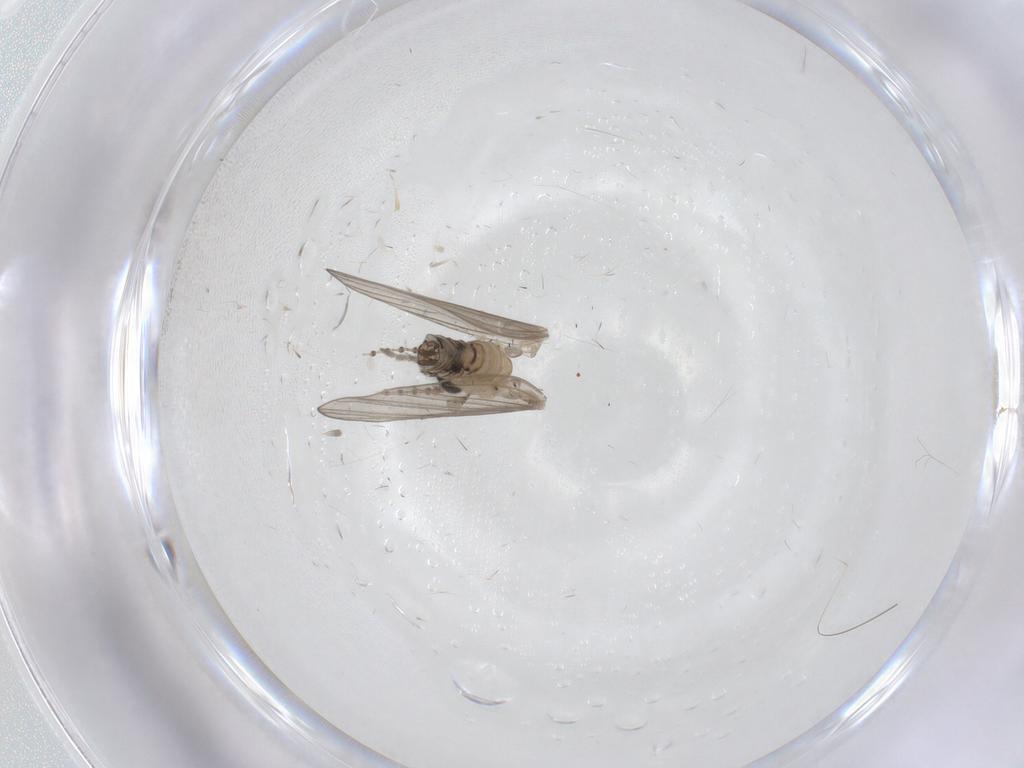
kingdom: Animalia
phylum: Arthropoda
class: Insecta
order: Diptera
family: Psychodidae
